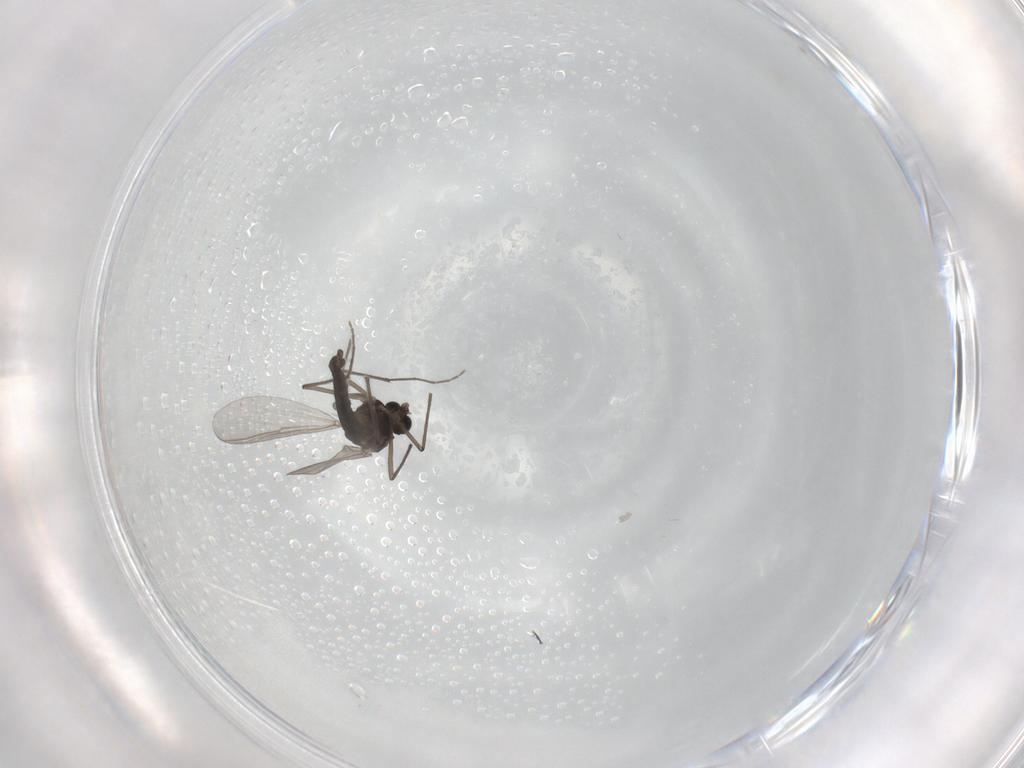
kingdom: Animalia
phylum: Arthropoda
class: Insecta
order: Diptera
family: Chironomidae
